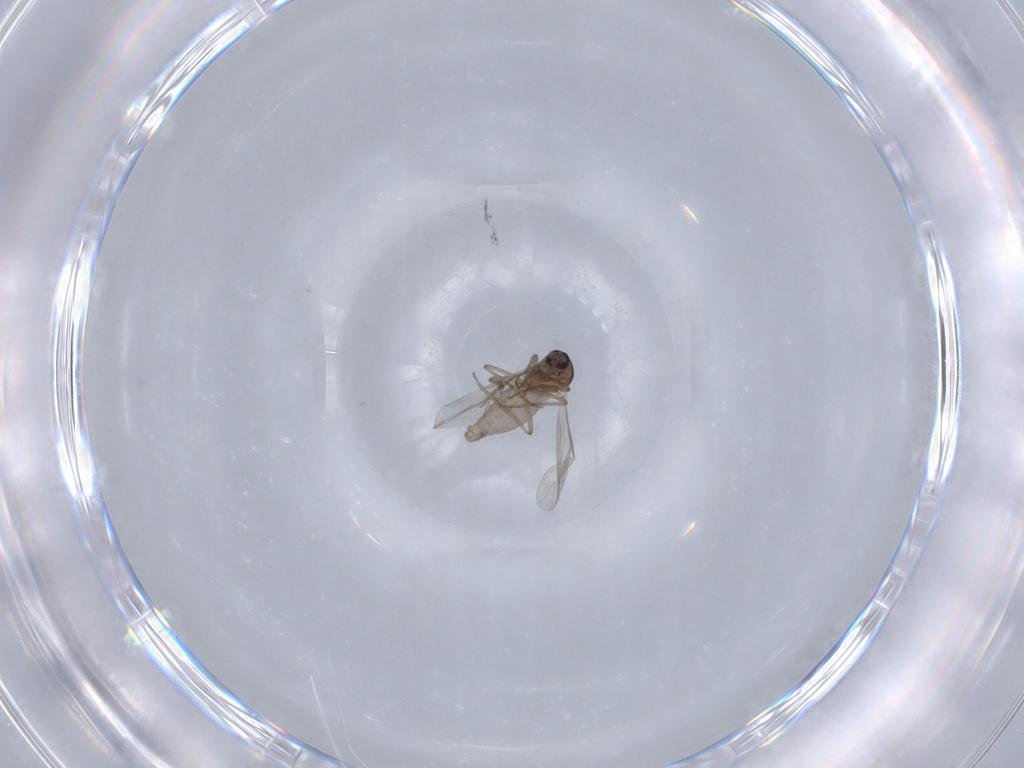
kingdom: Animalia
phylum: Arthropoda
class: Insecta
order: Diptera
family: Ceratopogonidae
